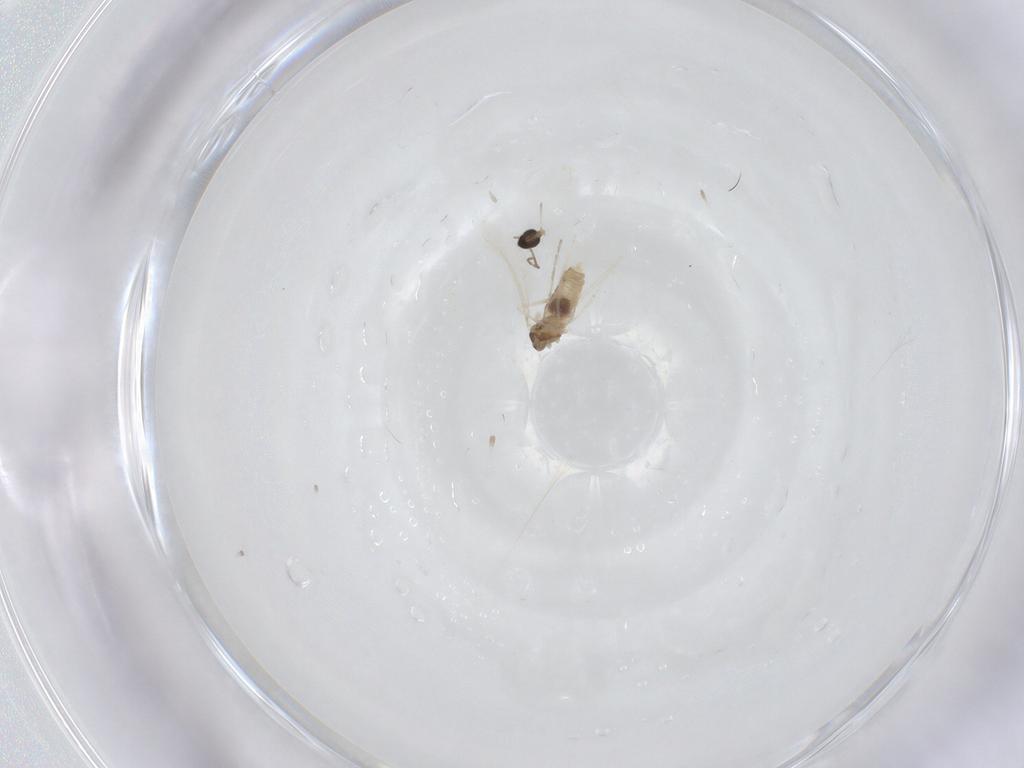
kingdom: Animalia
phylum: Arthropoda
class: Insecta
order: Diptera
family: Cecidomyiidae
